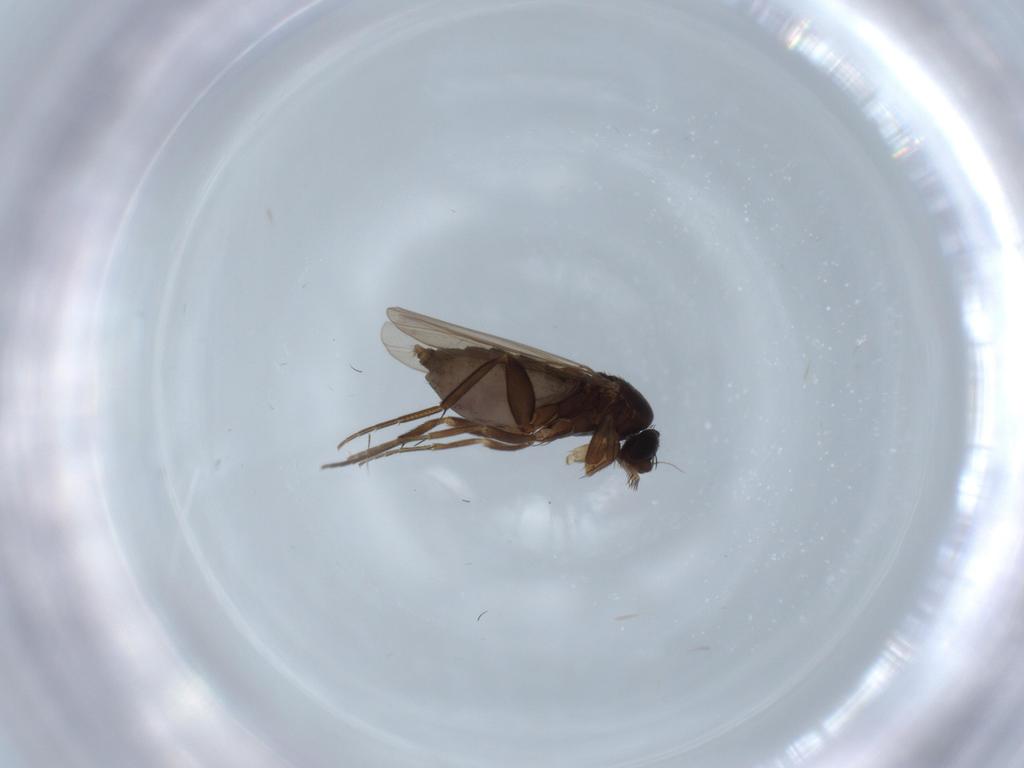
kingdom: Animalia
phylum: Arthropoda
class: Insecta
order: Diptera
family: Phoridae
